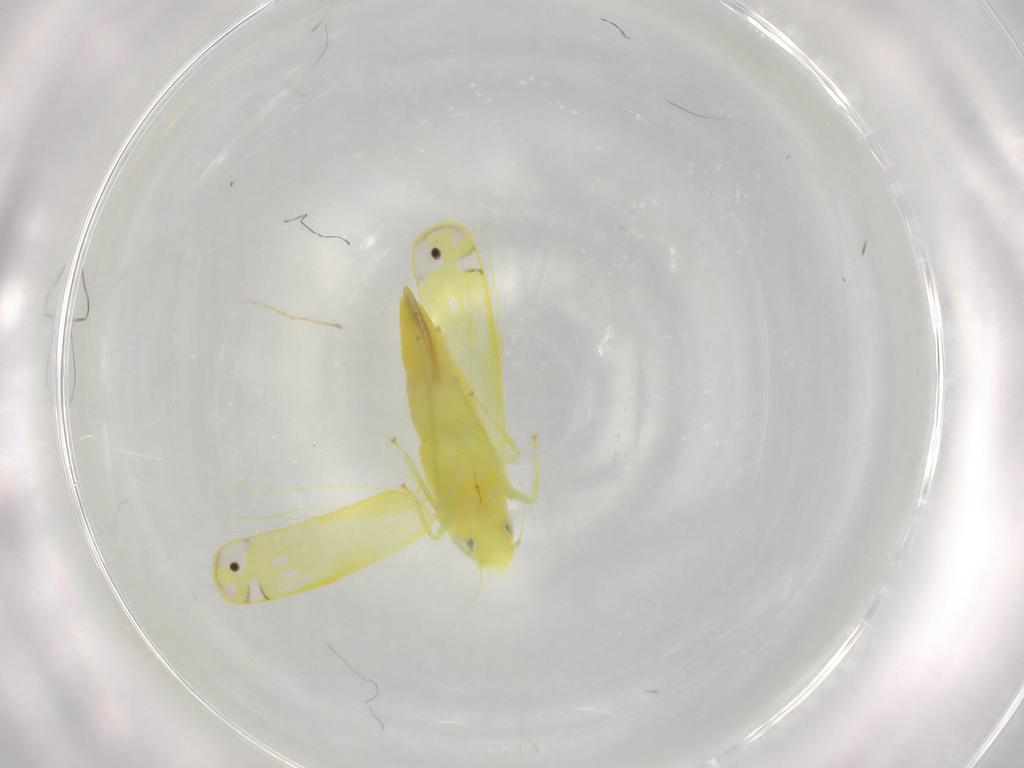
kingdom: Animalia
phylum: Arthropoda
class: Insecta
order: Hemiptera
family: Cicadellidae
